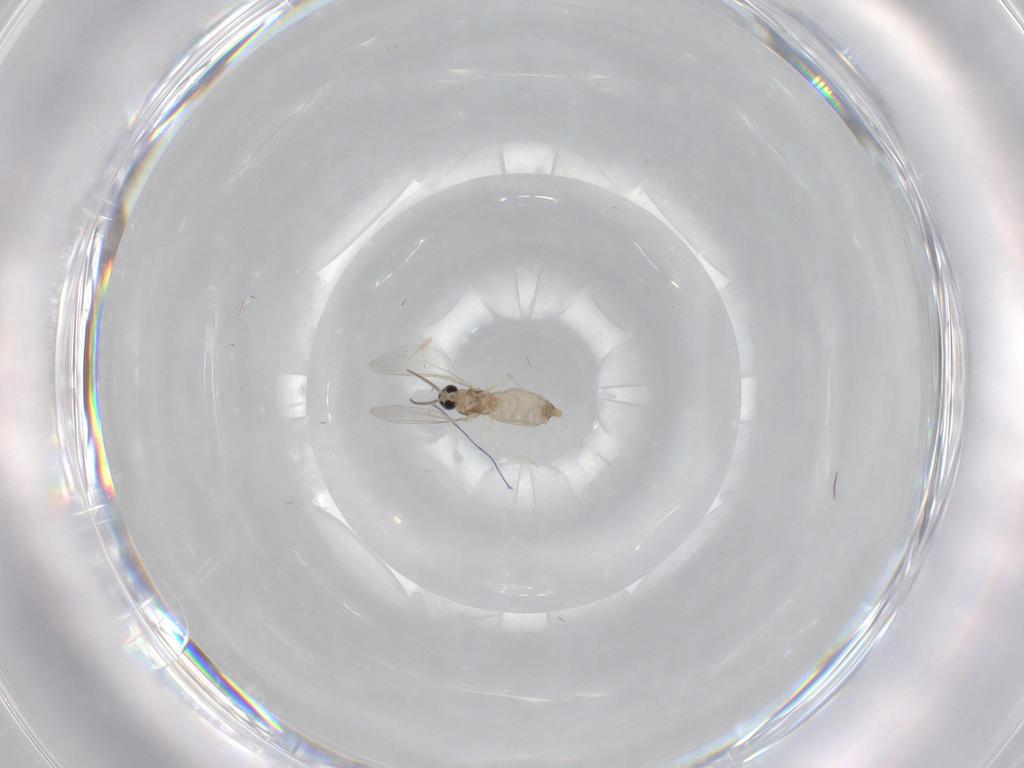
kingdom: Animalia
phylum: Arthropoda
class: Insecta
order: Diptera
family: Cecidomyiidae
